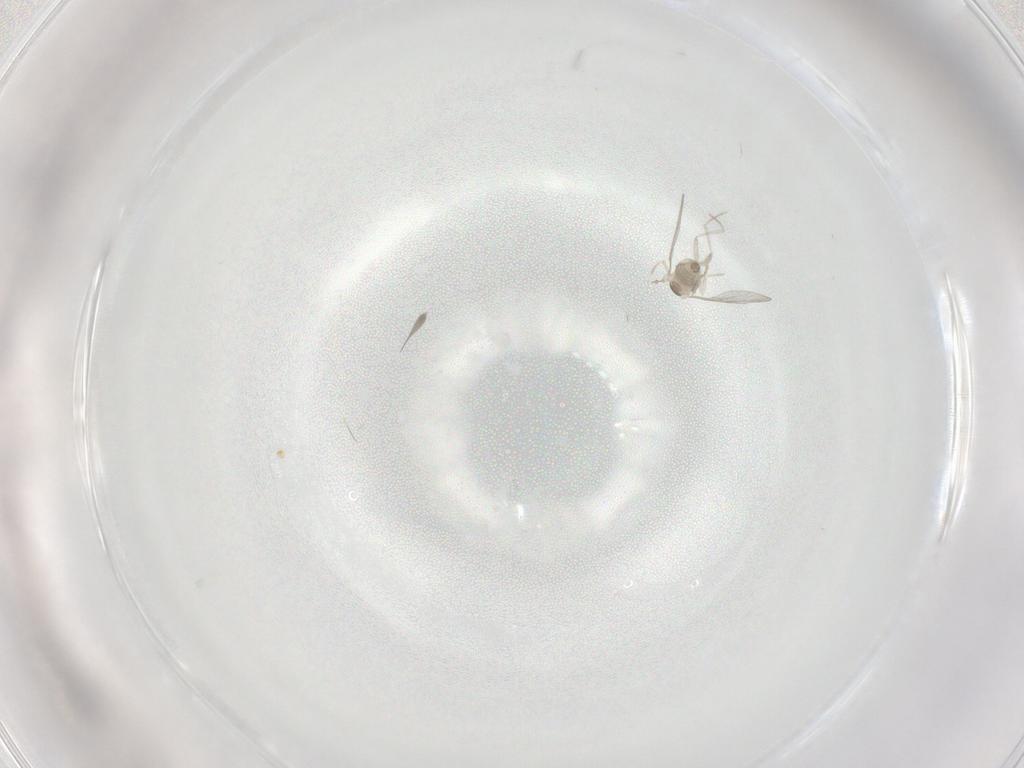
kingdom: Animalia
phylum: Arthropoda
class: Insecta
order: Diptera
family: Cecidomyiidae
